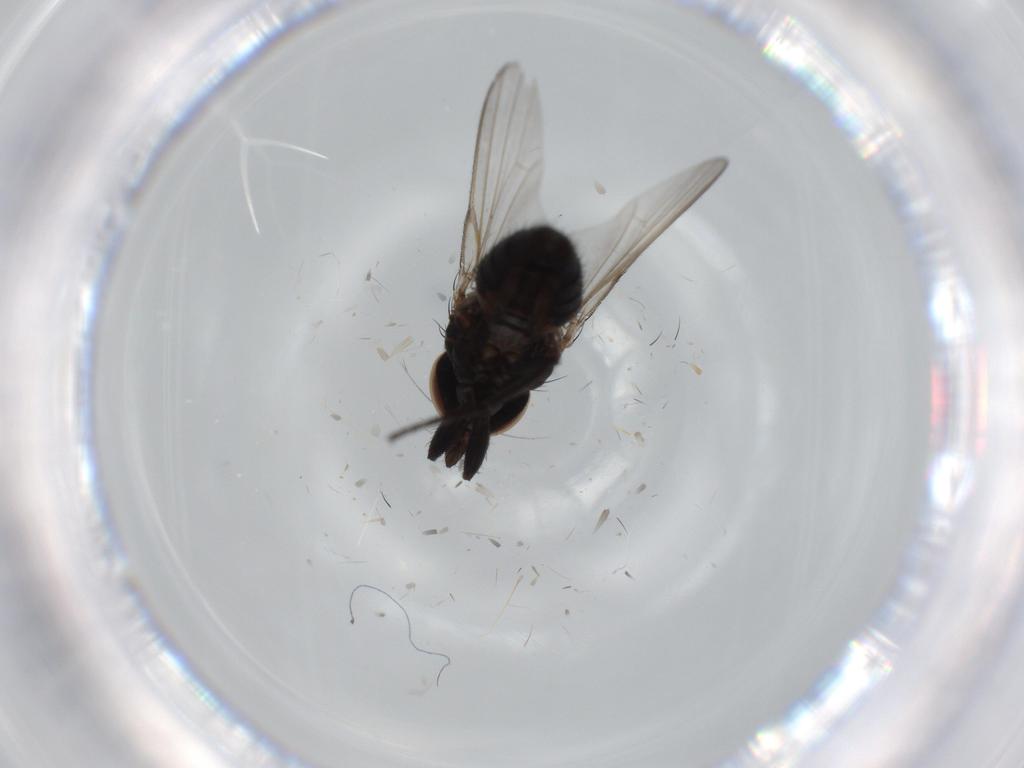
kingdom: Animalia
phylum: Arthropoda
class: Insecta
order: Diptera
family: Milichiidae
